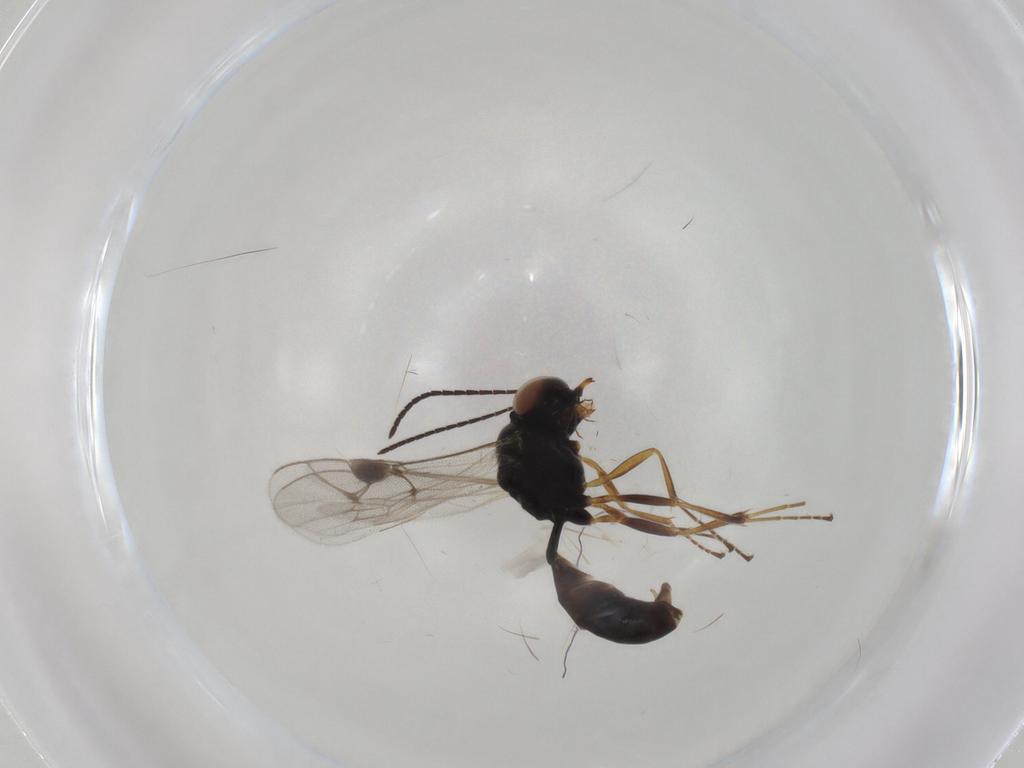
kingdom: Animalia
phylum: Arthropoda
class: Insecta
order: Hymenoptera
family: Ichneumonidae
